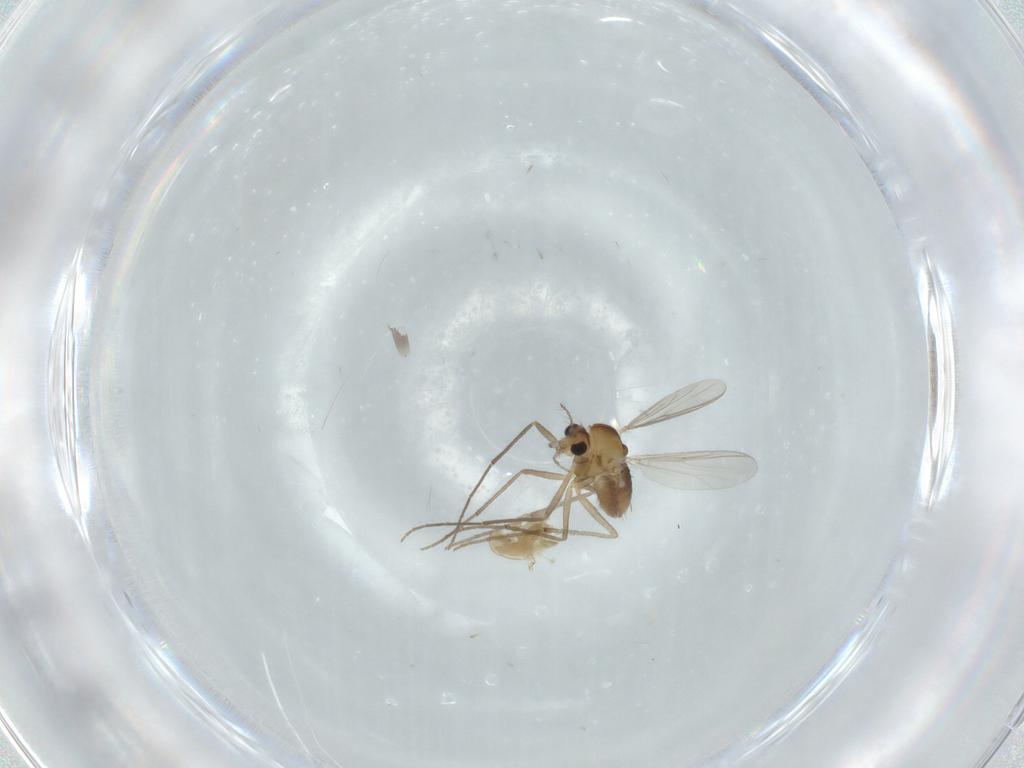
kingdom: Animalia
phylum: Arthropoda
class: Insecta
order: Diptera
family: Chironomidae
